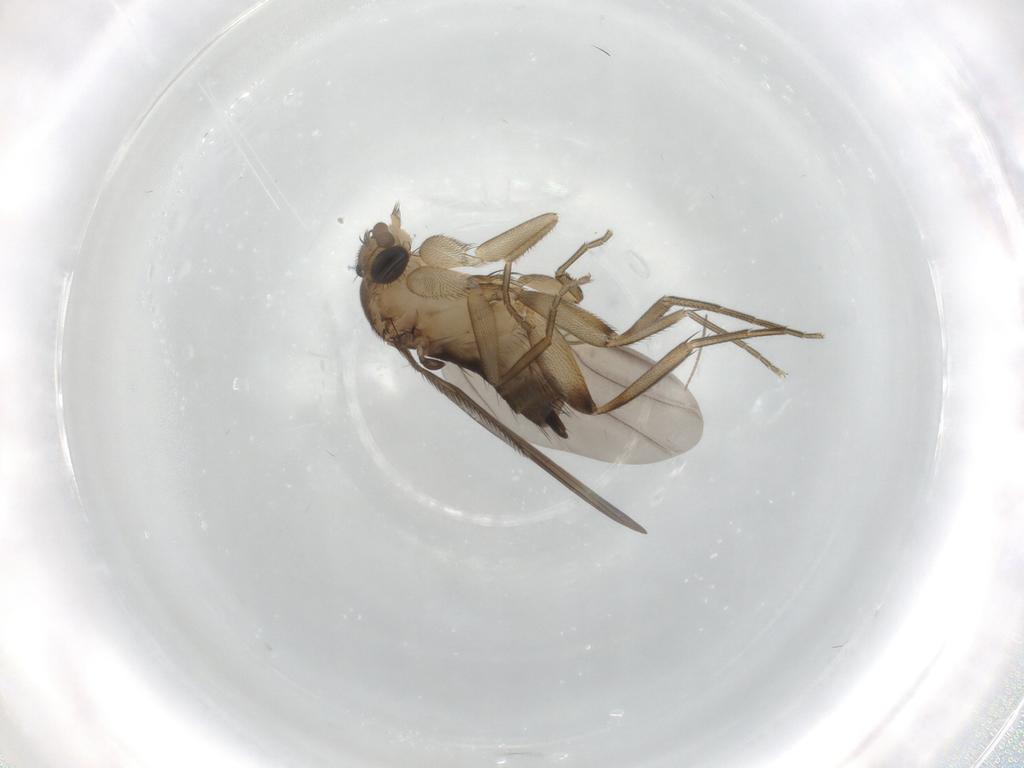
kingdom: Animalia
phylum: Arthropoda
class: Insecta
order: Diptera
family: Phoridae
